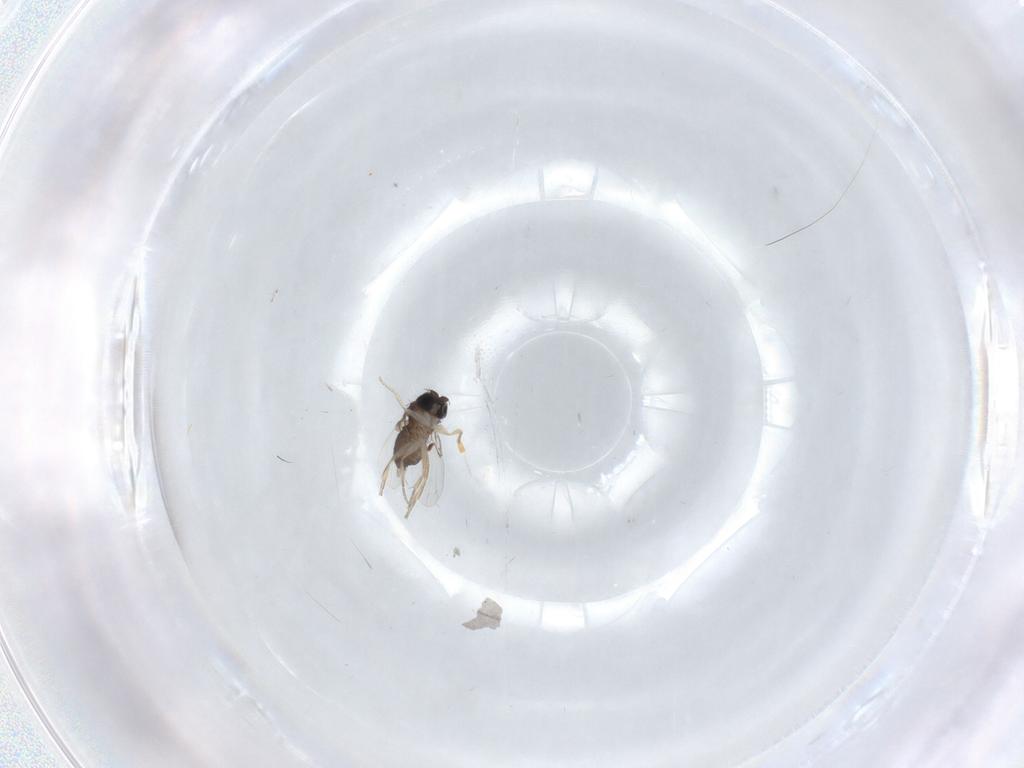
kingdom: Animalia
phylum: Arthropoda
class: Insecta
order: Diptera
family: Phoridae
